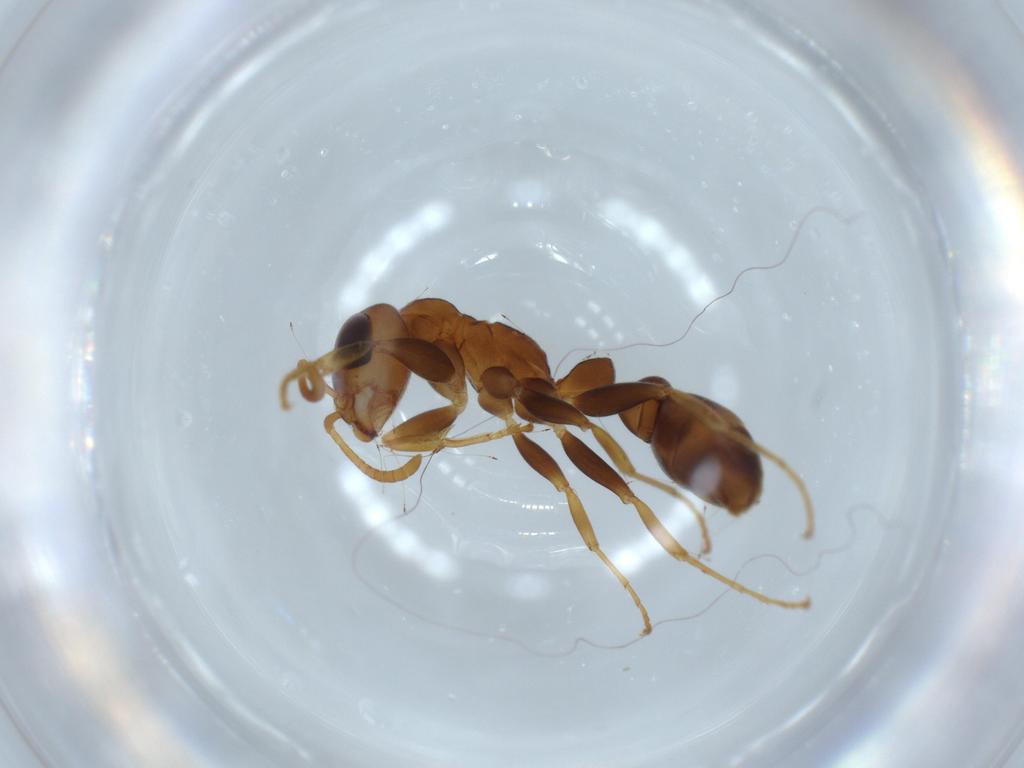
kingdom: Animalia
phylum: Arthropoda
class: Insecta
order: Hymenoptera
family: Formicidae
